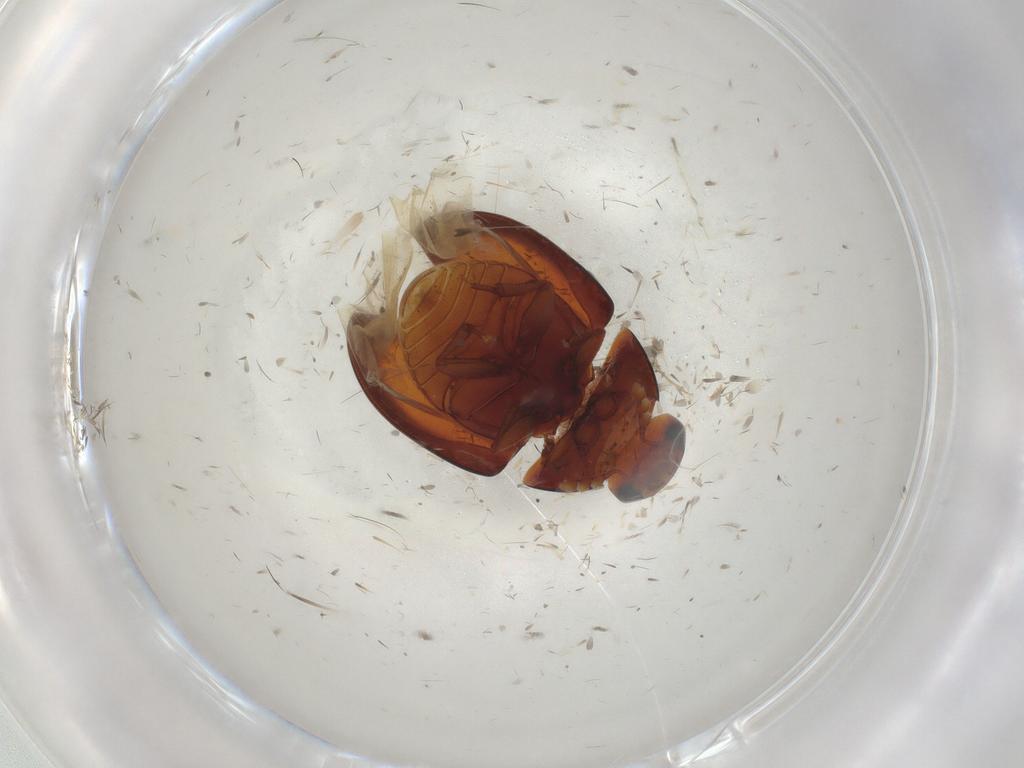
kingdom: Animalia
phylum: Arthropoda
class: Insecta
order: Coleoptera
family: Phalacridae
